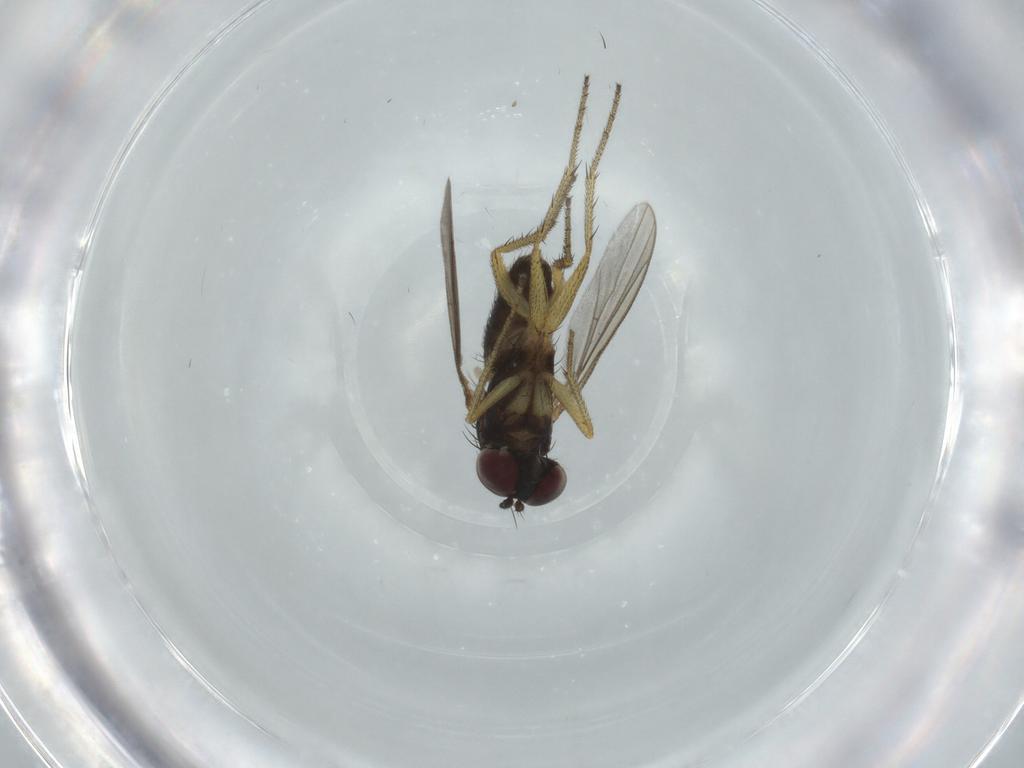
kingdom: Animalia
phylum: Arthropoda
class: Insecta
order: Diptera
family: Dolichopodidae
